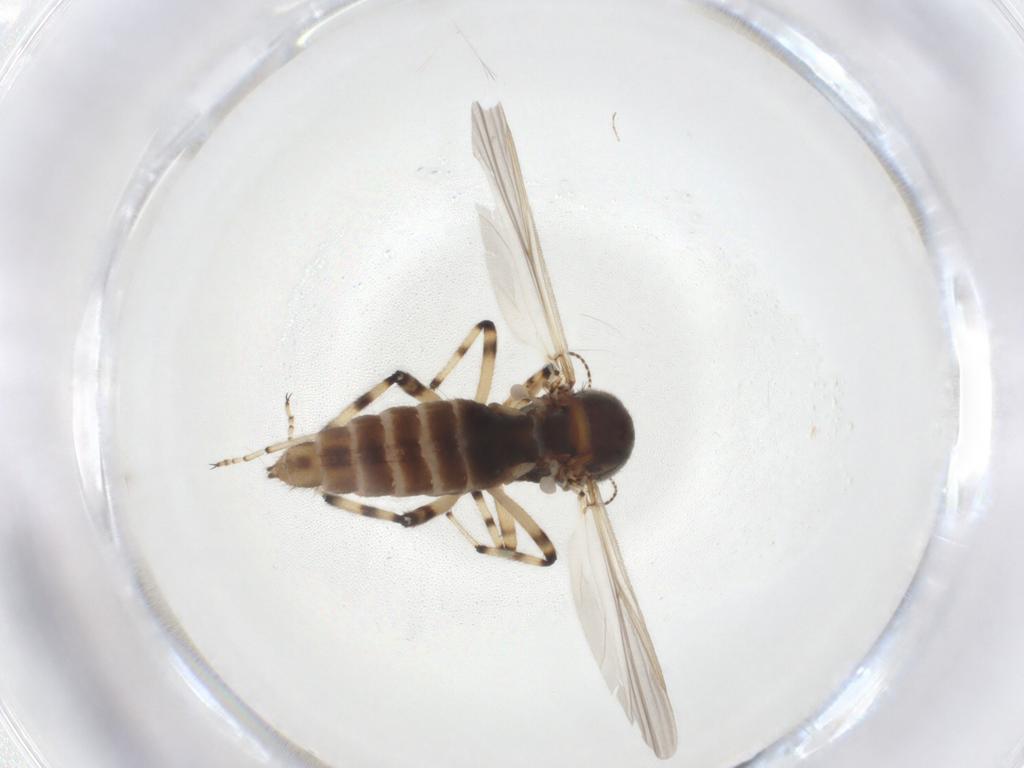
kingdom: Animalia
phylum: Arthropoda
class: Insecta
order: Diptera
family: Ceratopogonidae
